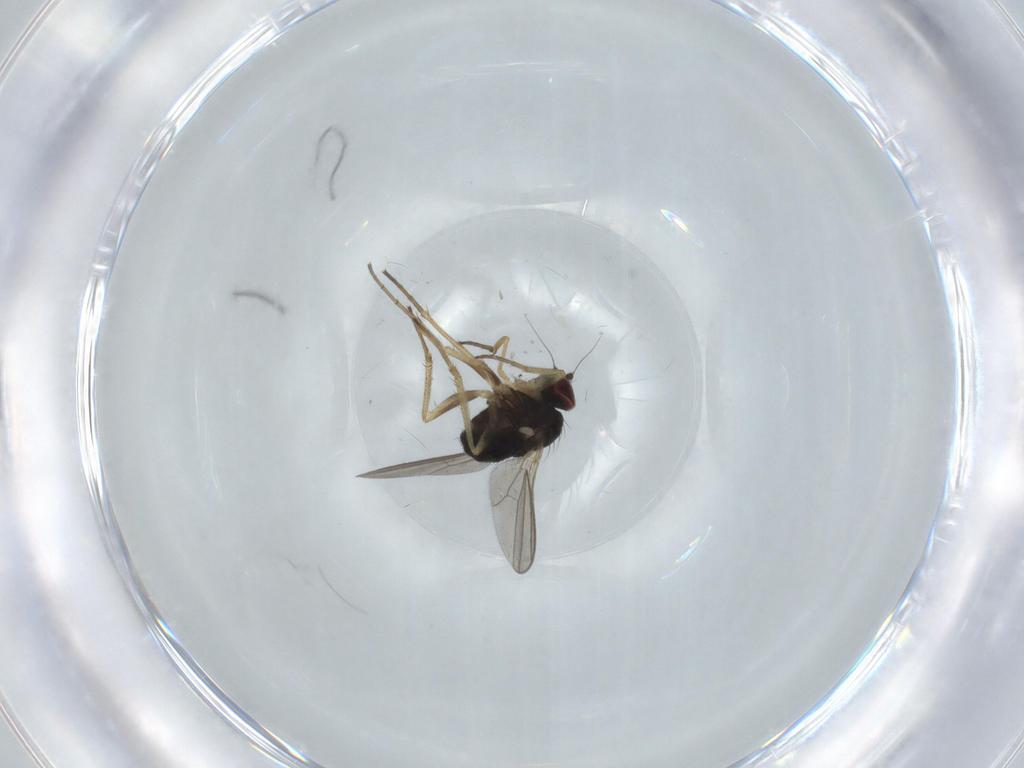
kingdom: Animalia
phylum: Arthropoda
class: Insecta
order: Diptera
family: Dolichopodidae
